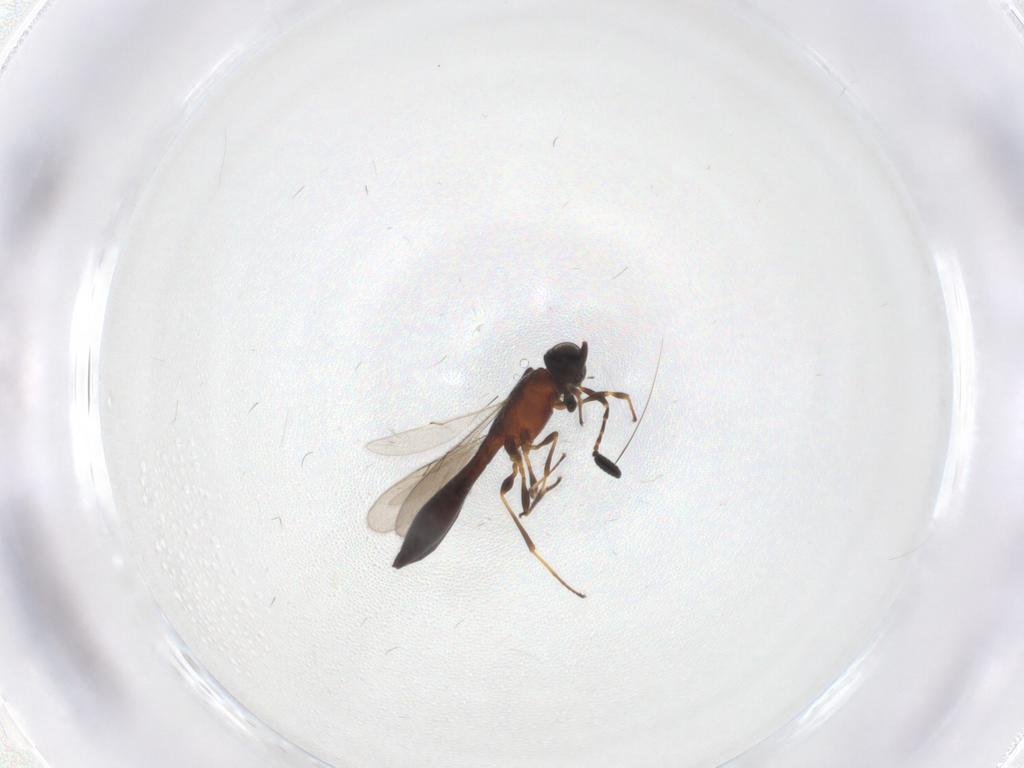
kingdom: Animalia
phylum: Arthropoda
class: Insecta
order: Hymenoptera
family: Scelionidae
